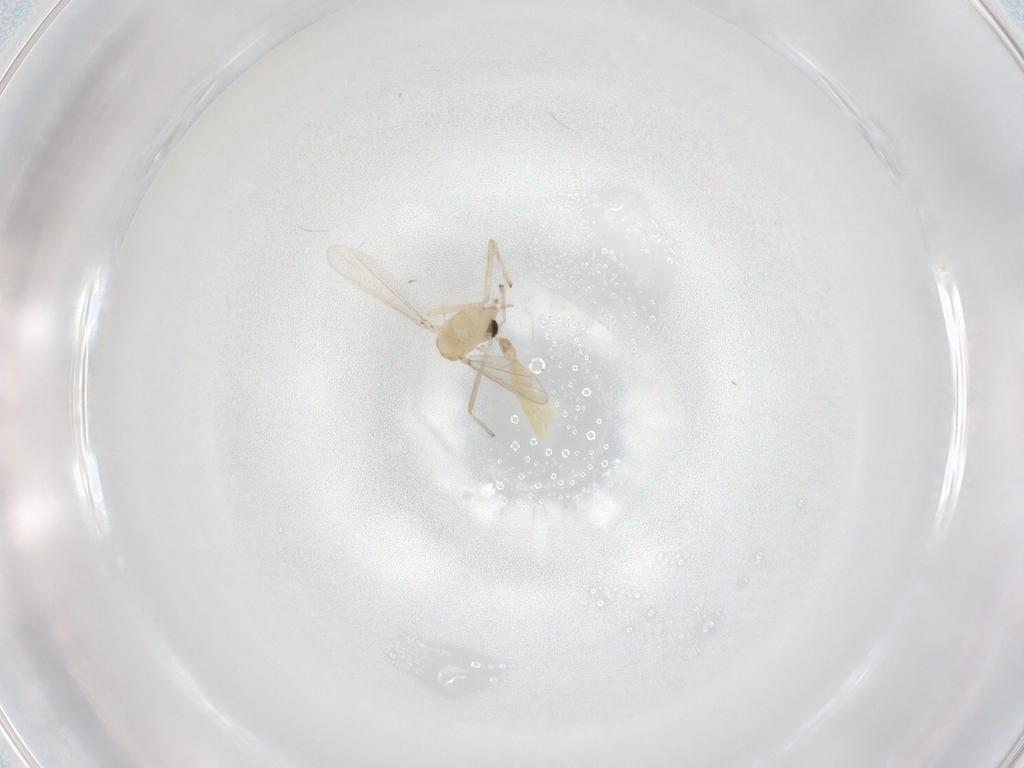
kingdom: Animalia
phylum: Arthropoda
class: Insecta
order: Diptera
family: Chironomidae
